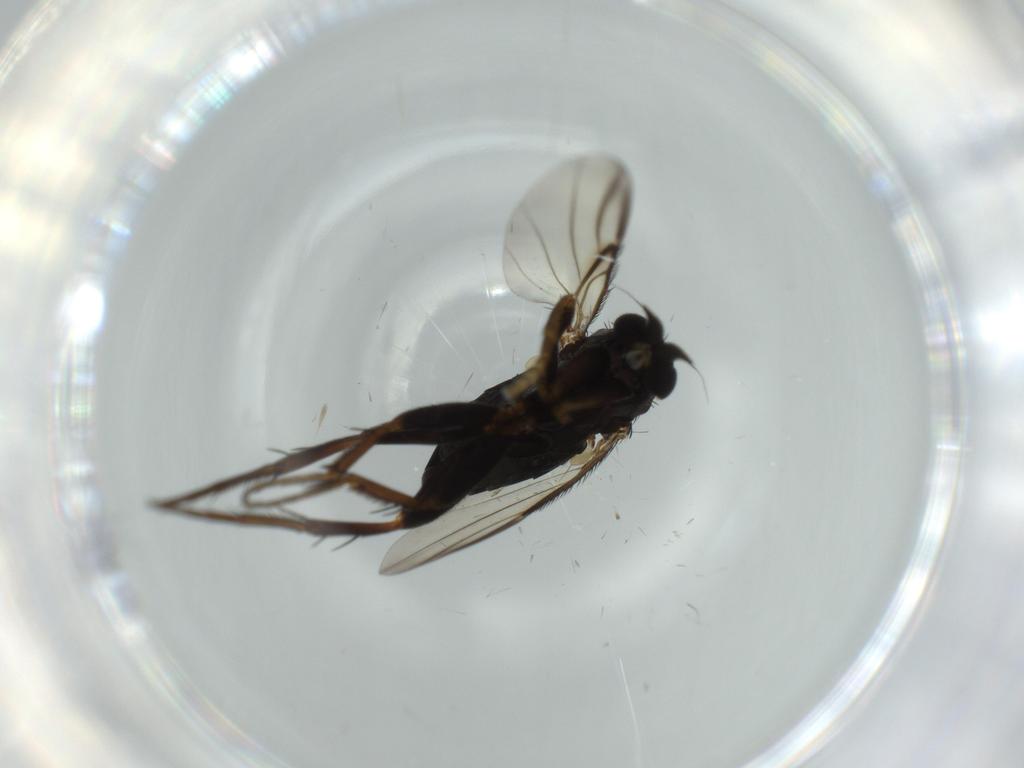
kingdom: Animalia
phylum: Arthropoda
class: Insecta
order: Diptera
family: Phoridae
